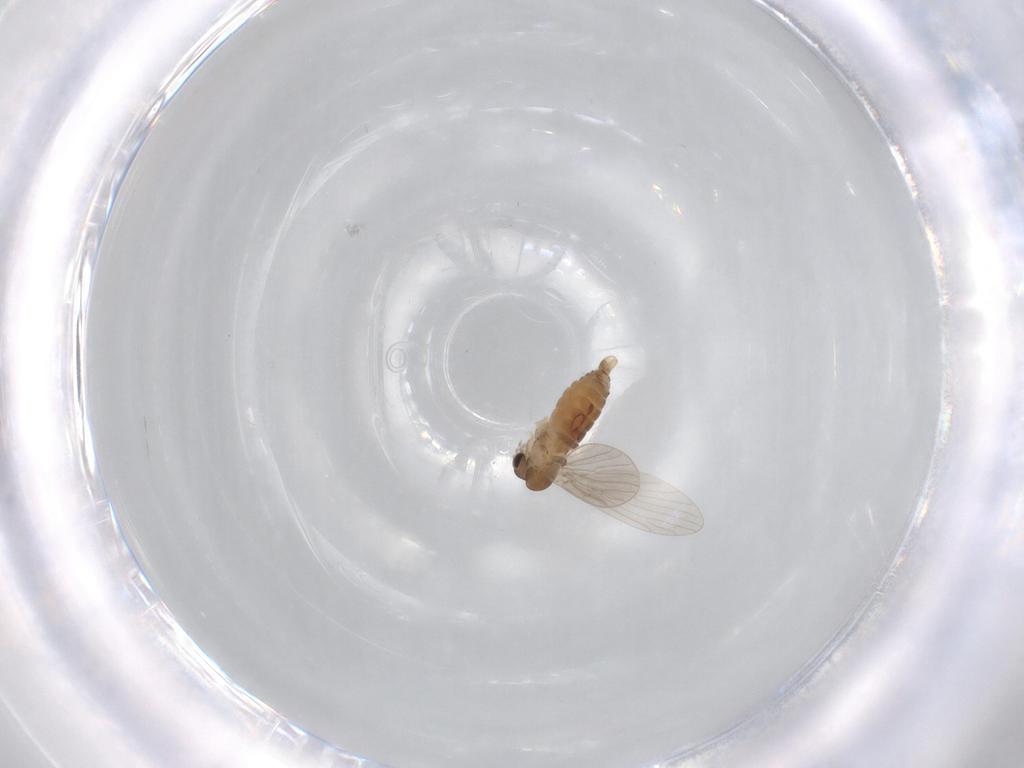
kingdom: Animalia
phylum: Arthropoda
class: Insecta
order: Diptera
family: Psychodidae
